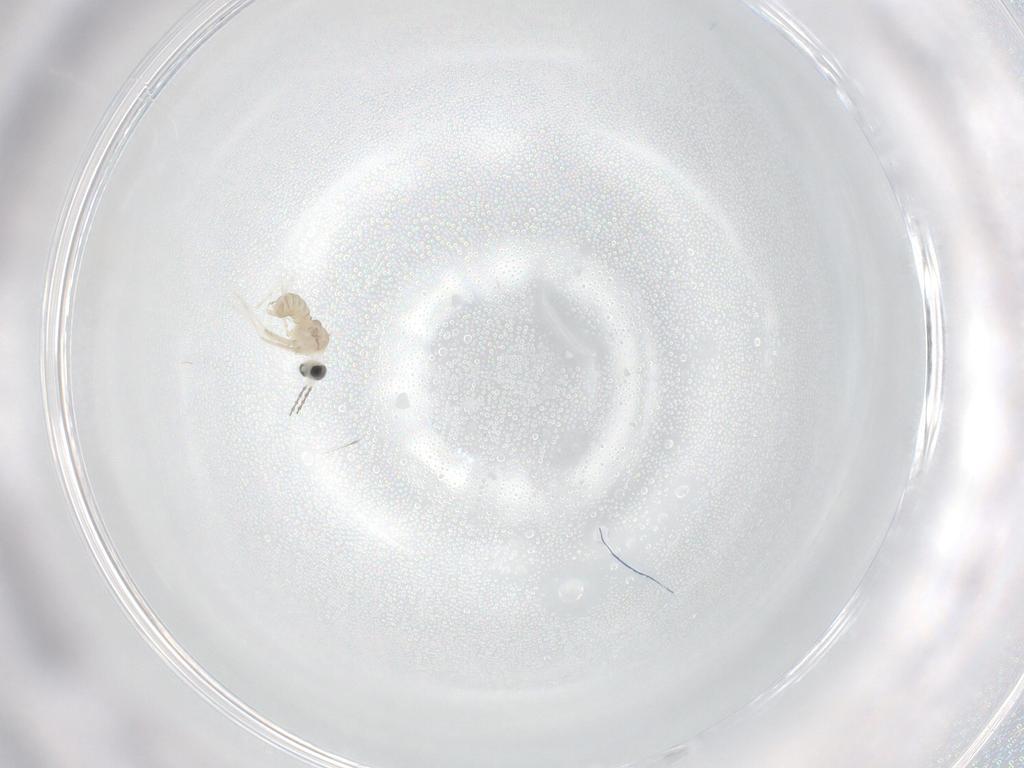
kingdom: Animalia
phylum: Arthropoda
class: Insecta
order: Diptera
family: Cecidomyiidae
